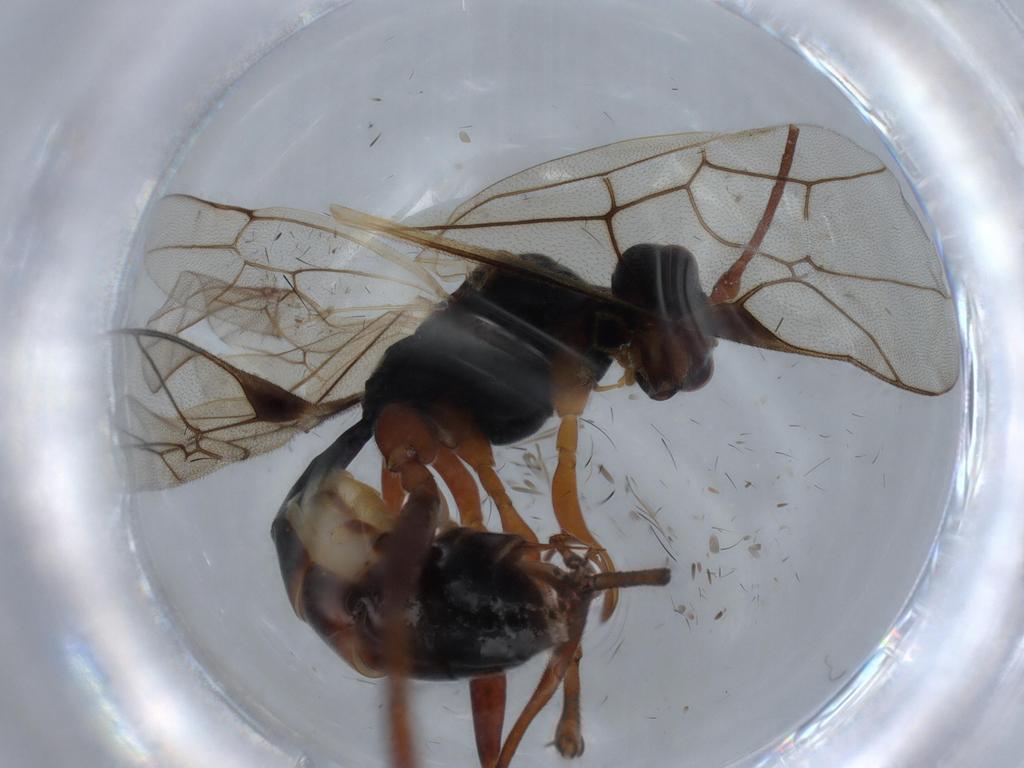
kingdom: Animalia
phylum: Arthropoda
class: Insecta
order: Hymenoptera
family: Ichneumonidae
